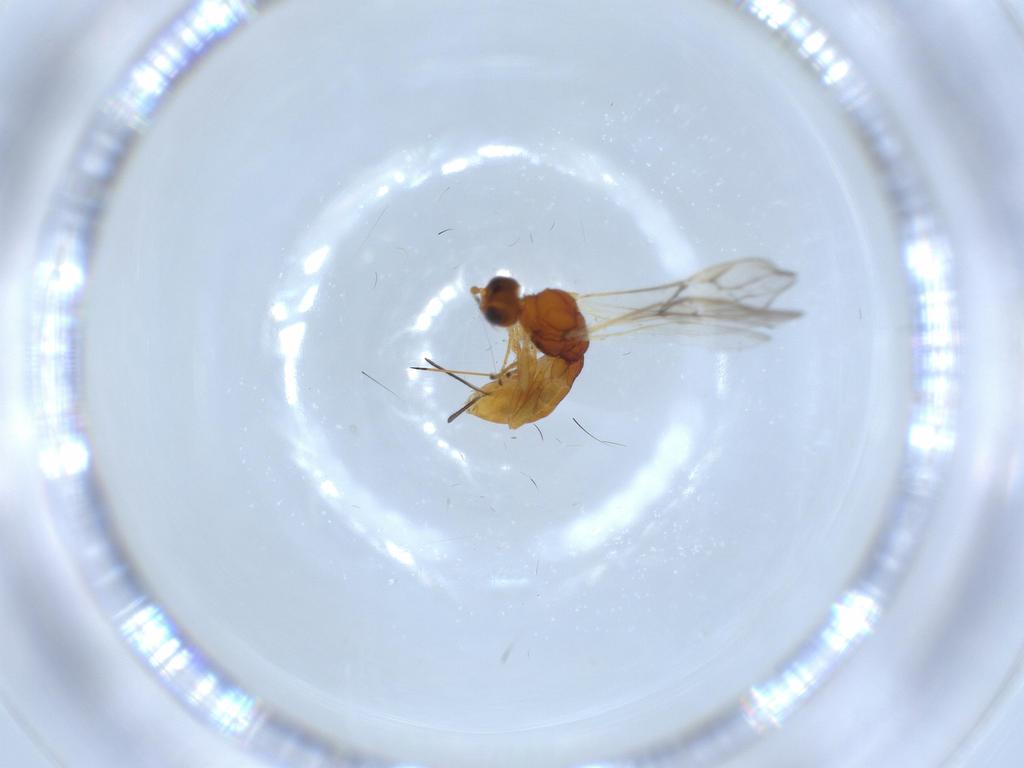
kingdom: Animalia
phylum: Arthropoda
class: Insecta
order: Hymenoptera
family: Braconidae
